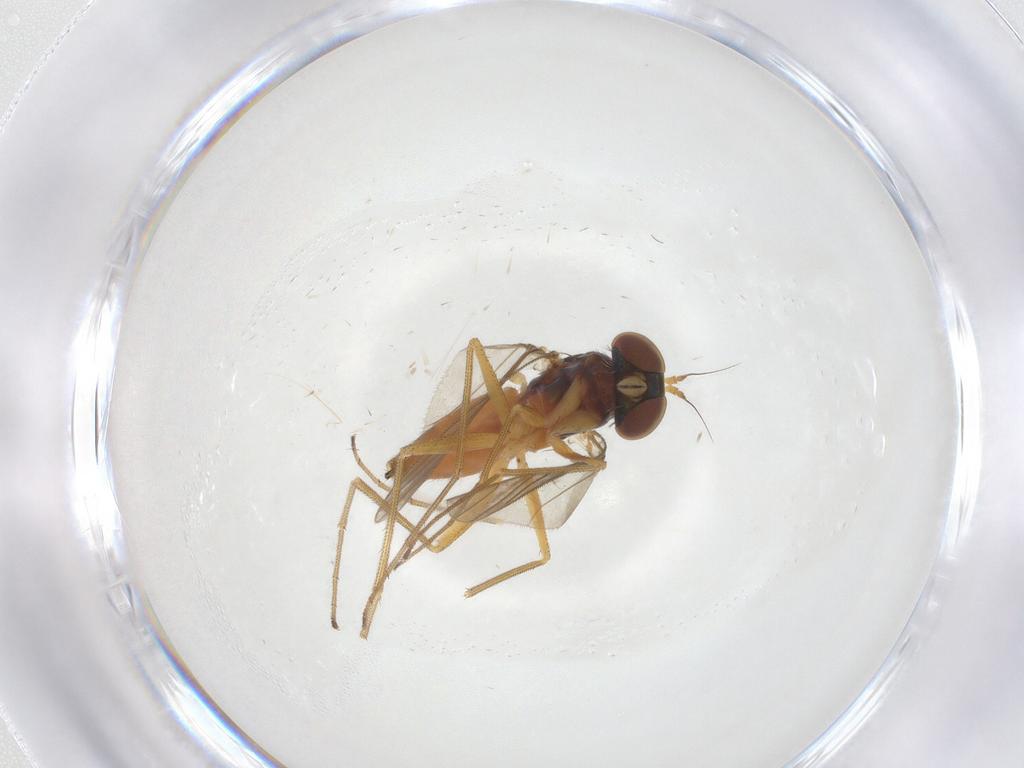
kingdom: Animalia
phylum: Arthropoda
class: Insecta
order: Diptera
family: Dolichopodidae
